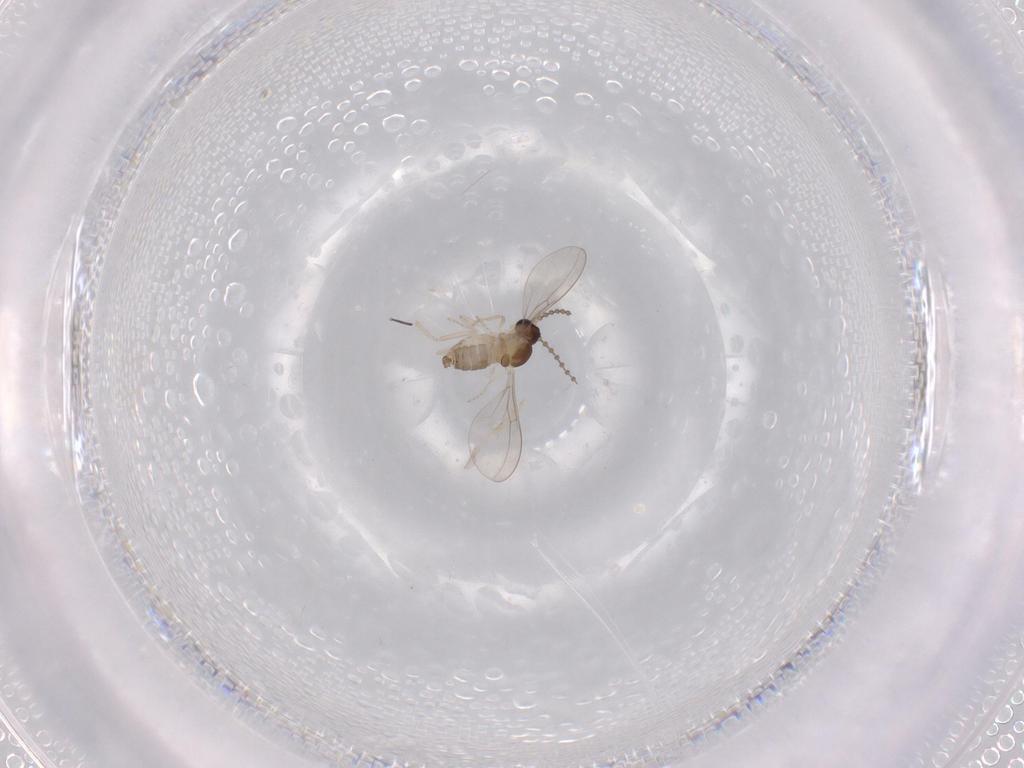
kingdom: Animalia
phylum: Arthropoda
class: Insecta
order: Diptera
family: Cecidomyiidae
